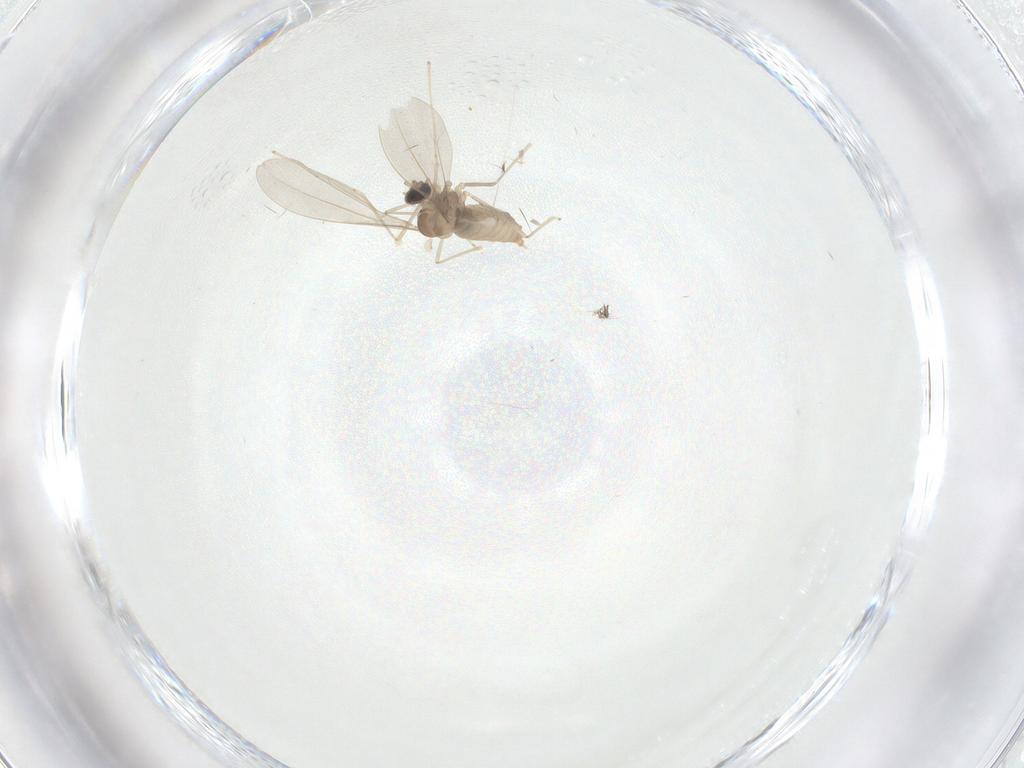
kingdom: Animalia
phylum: Arthropoda
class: Insecta
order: Diptera
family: Cecidomyiidae
